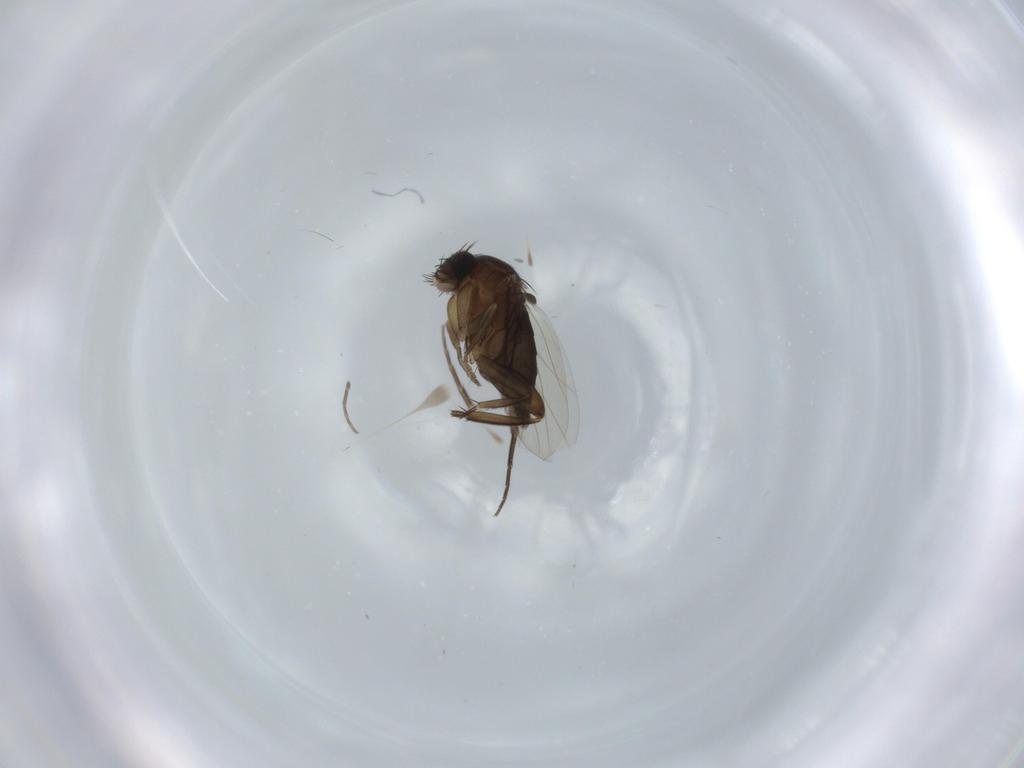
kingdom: Animalia
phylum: Arthropoda
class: Insecta
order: Diptera
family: Phoridae
